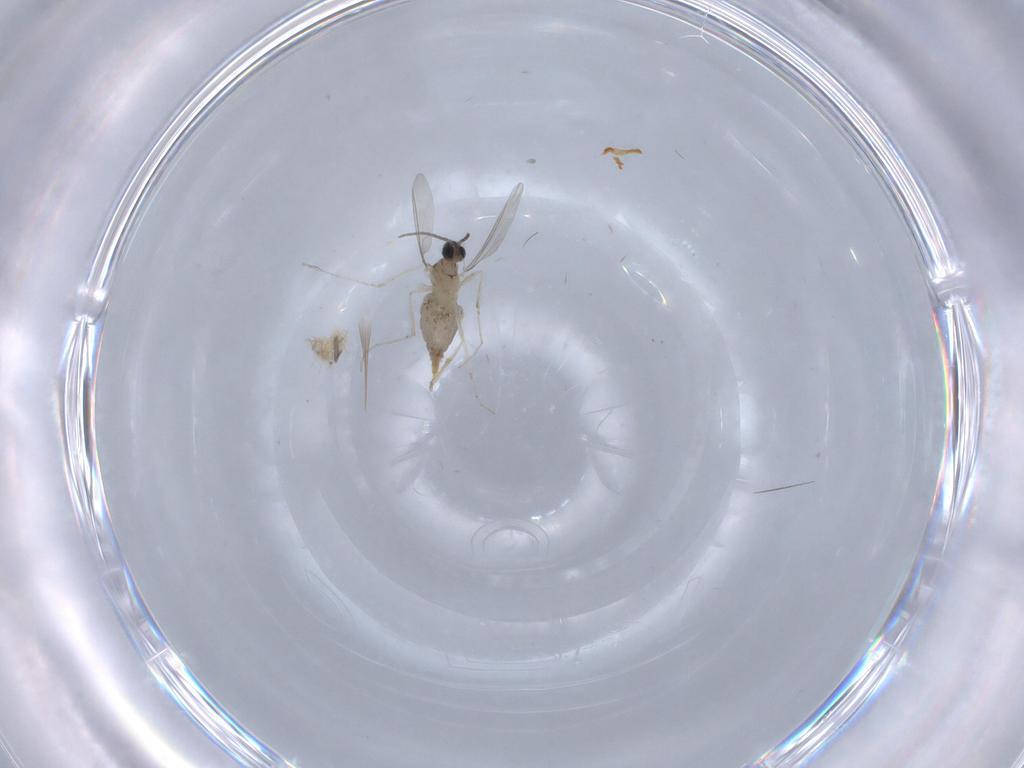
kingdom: Animalia
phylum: Arthropoda
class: Insecta
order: Diptera
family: Cecidomyiidae
